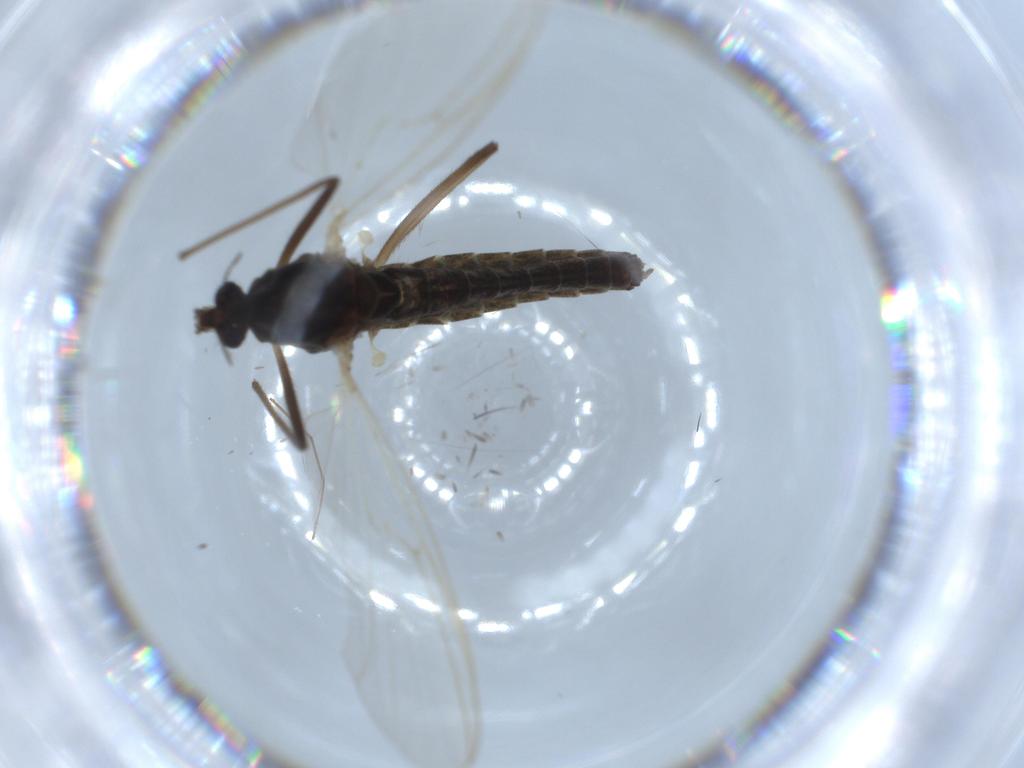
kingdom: Animalia
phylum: Arthropoda
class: Insecta
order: Diptera
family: Chironomidae
